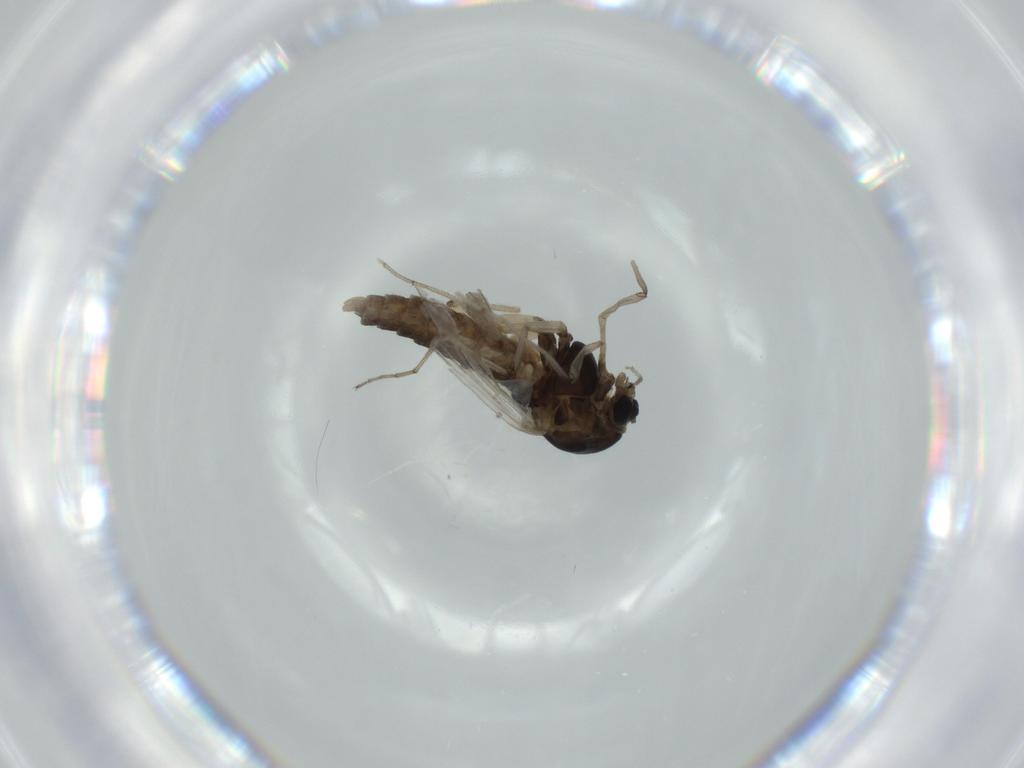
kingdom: Animalia
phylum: Arthropoda
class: Insecta
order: Diptera
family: Chironomidae
